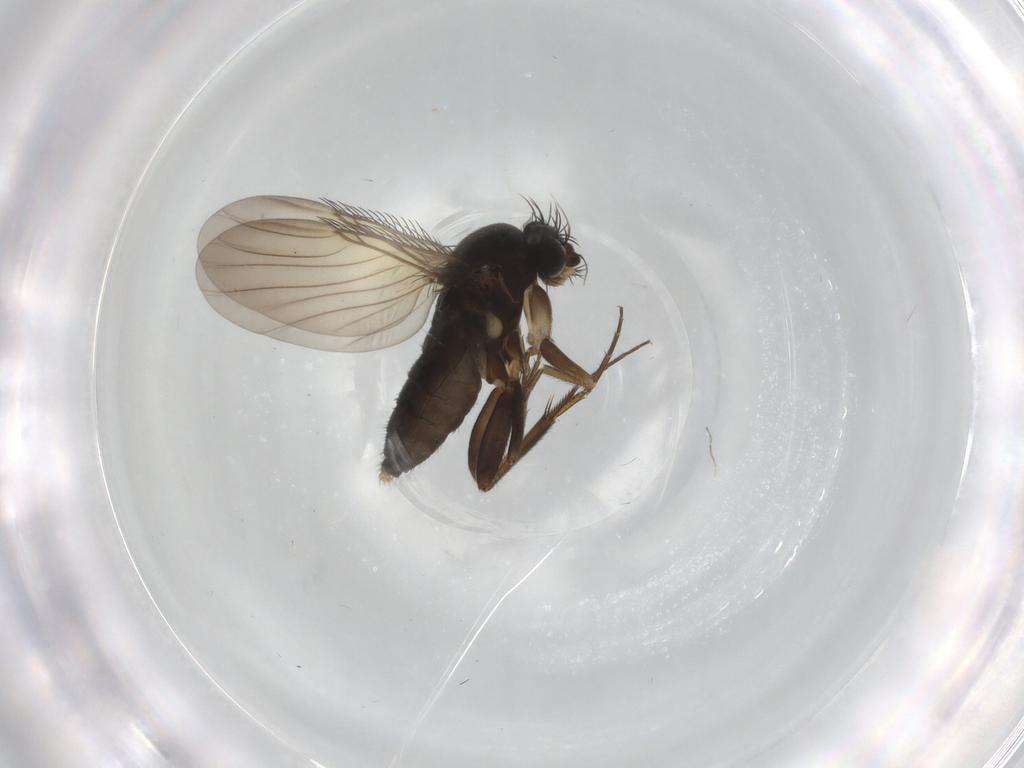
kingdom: Animalia
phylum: Arthropoda
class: Insecta
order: Diptera
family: Phoridae
